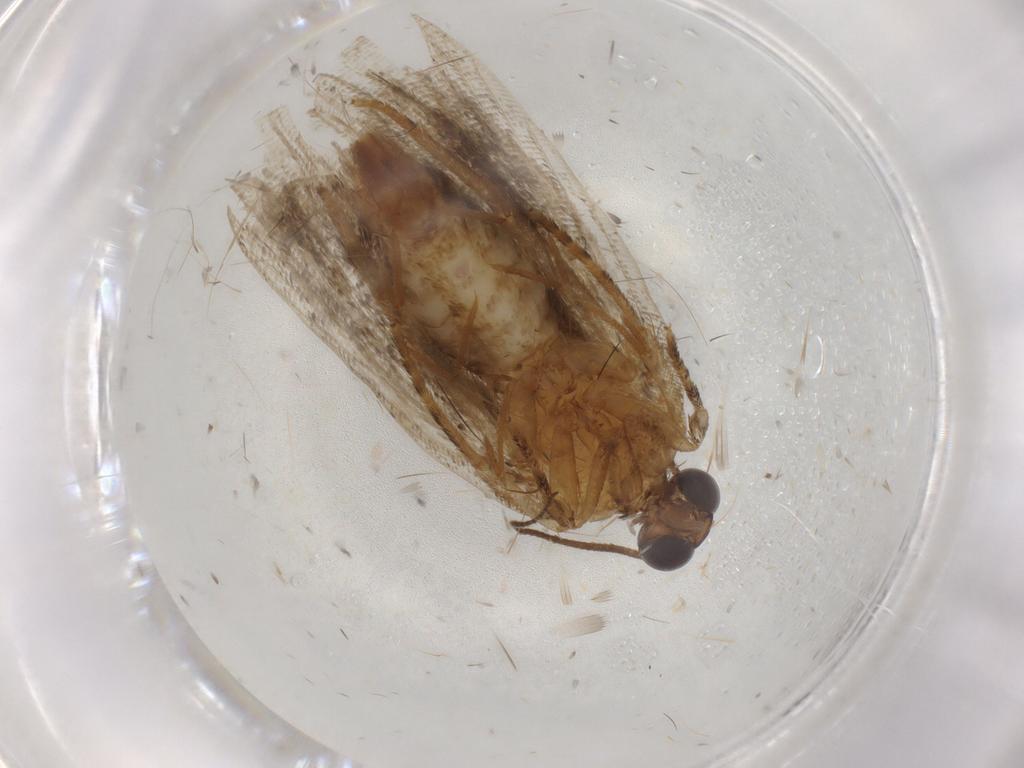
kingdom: Animalia
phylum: Arthropoda
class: Insecta
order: Lepidoptera
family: Tortricidae
